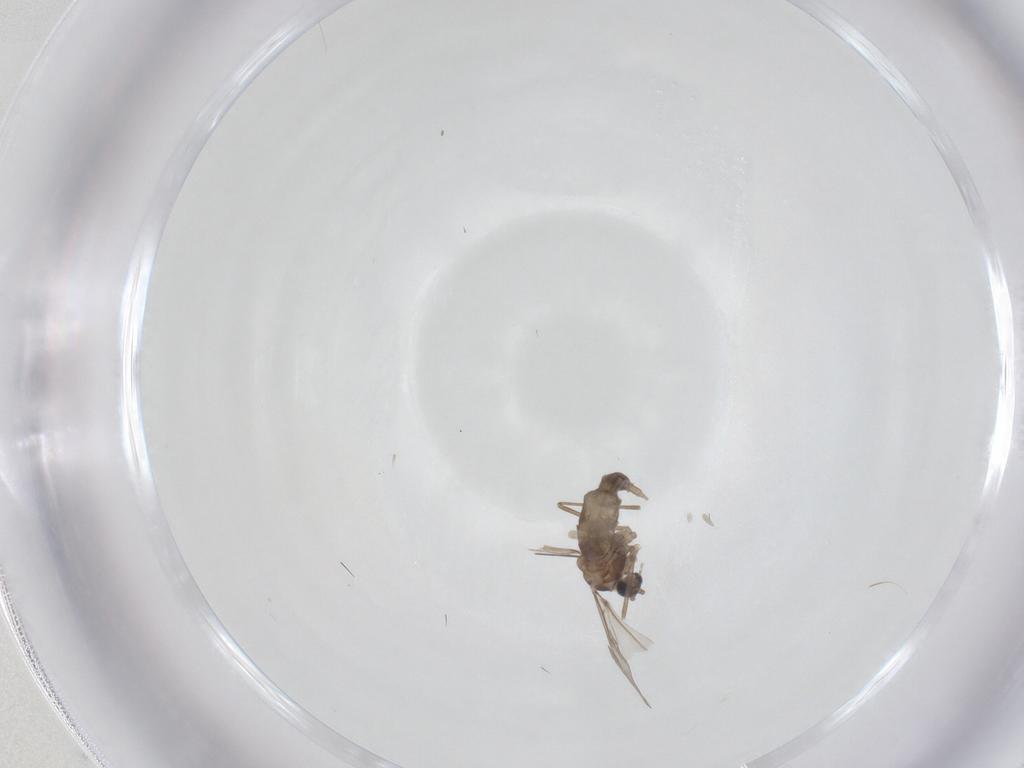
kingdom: Animalia
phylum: Arthropoda
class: Insecta
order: Diptera
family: Cecidomyiidae
